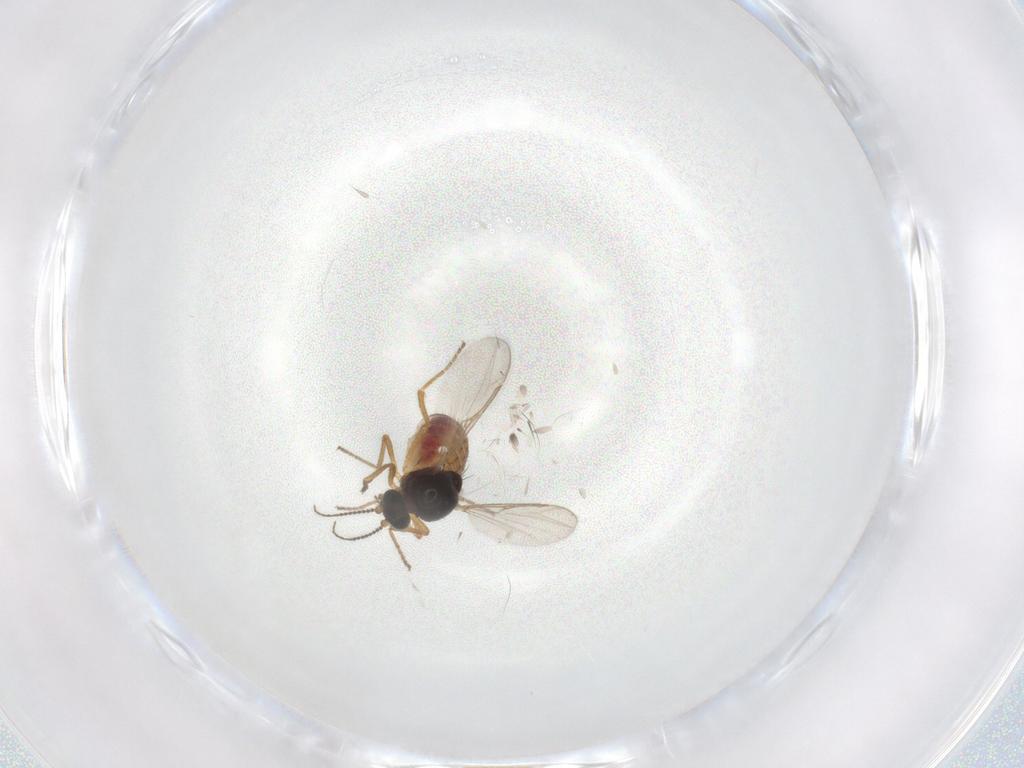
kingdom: Animalia
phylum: Arthropoda
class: Insecta
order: Diptera
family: Ceratopogonidae
